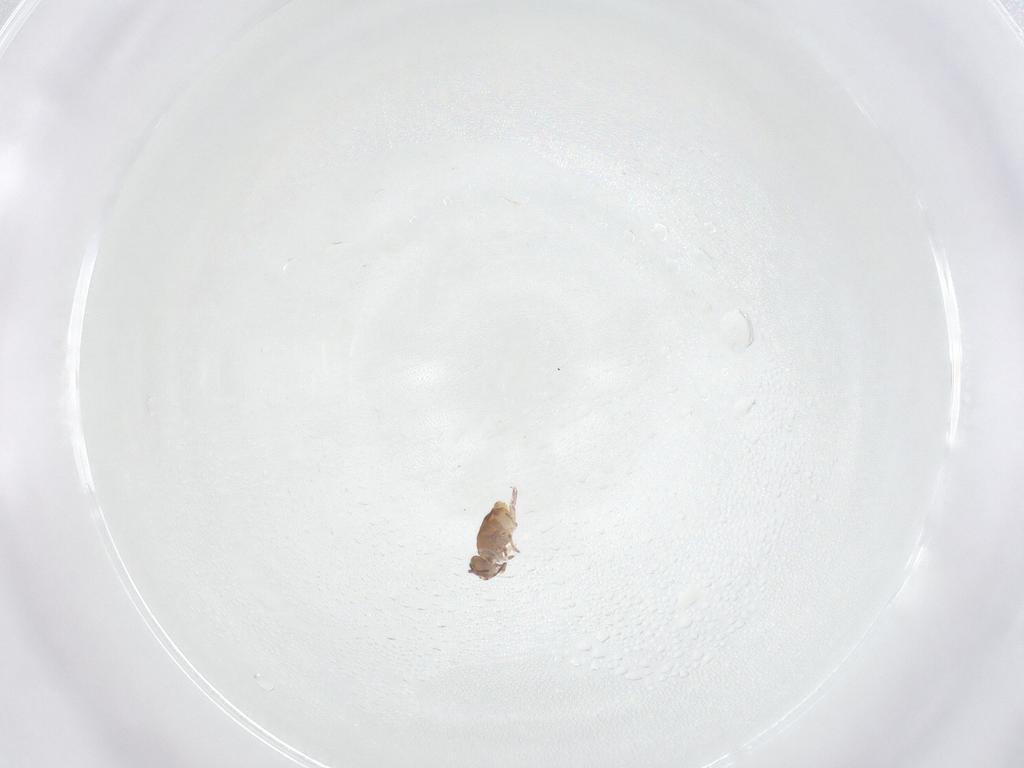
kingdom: Animalia
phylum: Arthropoda
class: Collembola
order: Symphypleona
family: Sminthuridae
